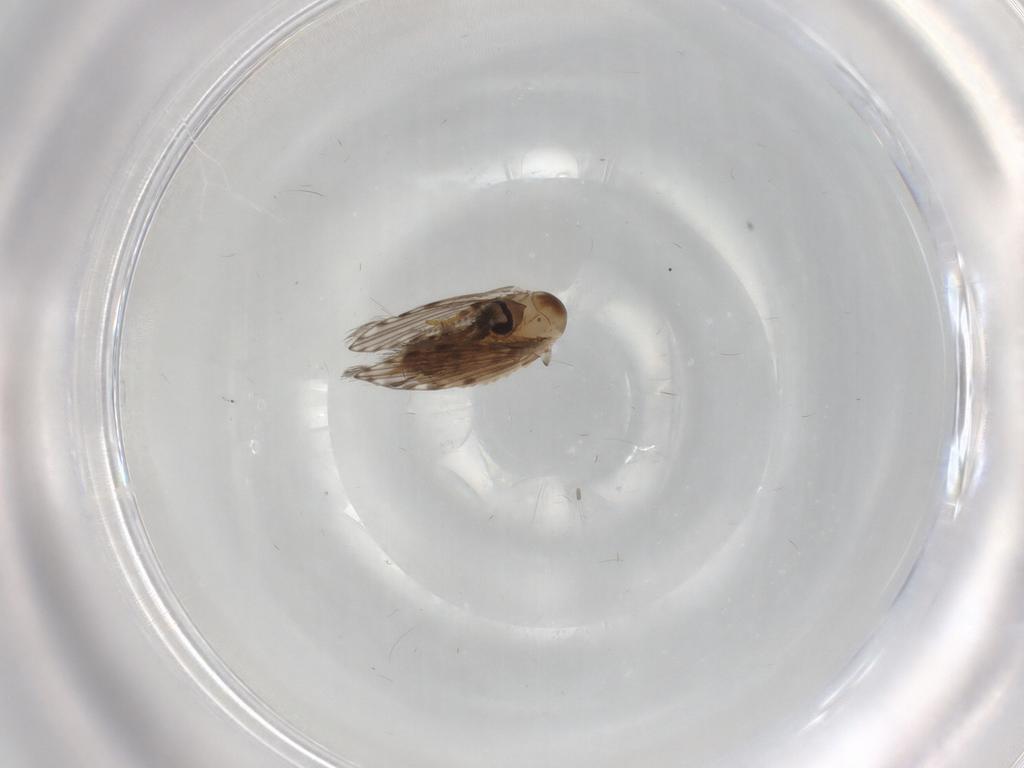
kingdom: Animalia
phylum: Arthropoda
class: Insecta
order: Diptera
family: Psychodidae
